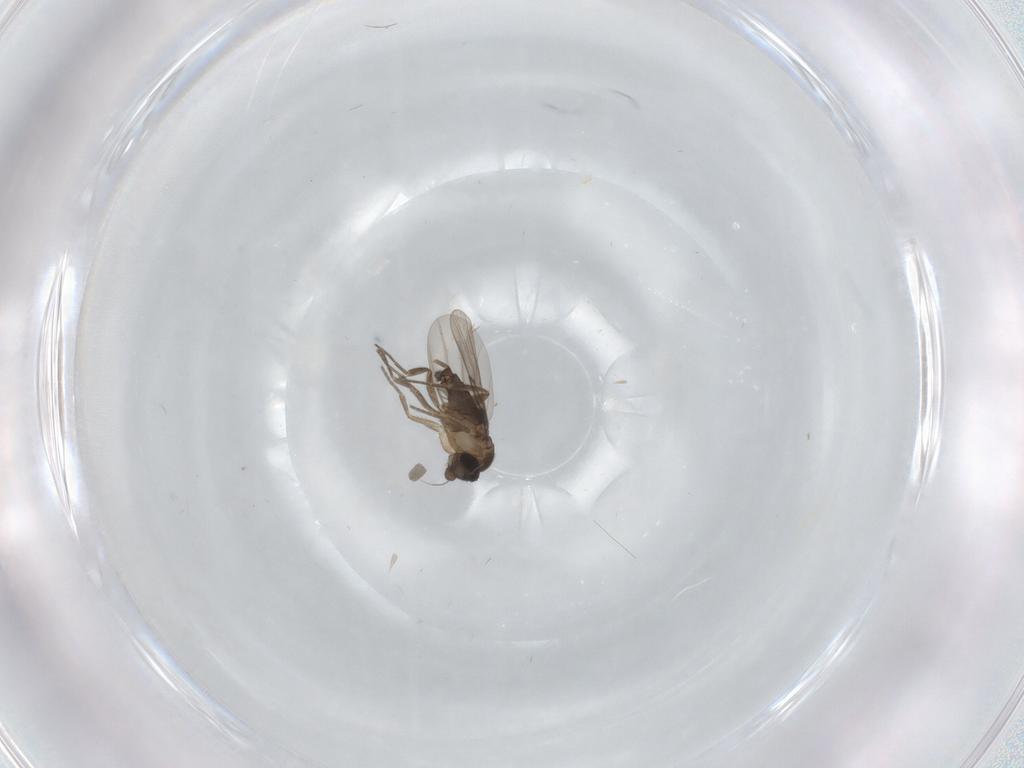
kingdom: Animalia
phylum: Arthropoda
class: Insecta
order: Diptera
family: Phoridae
